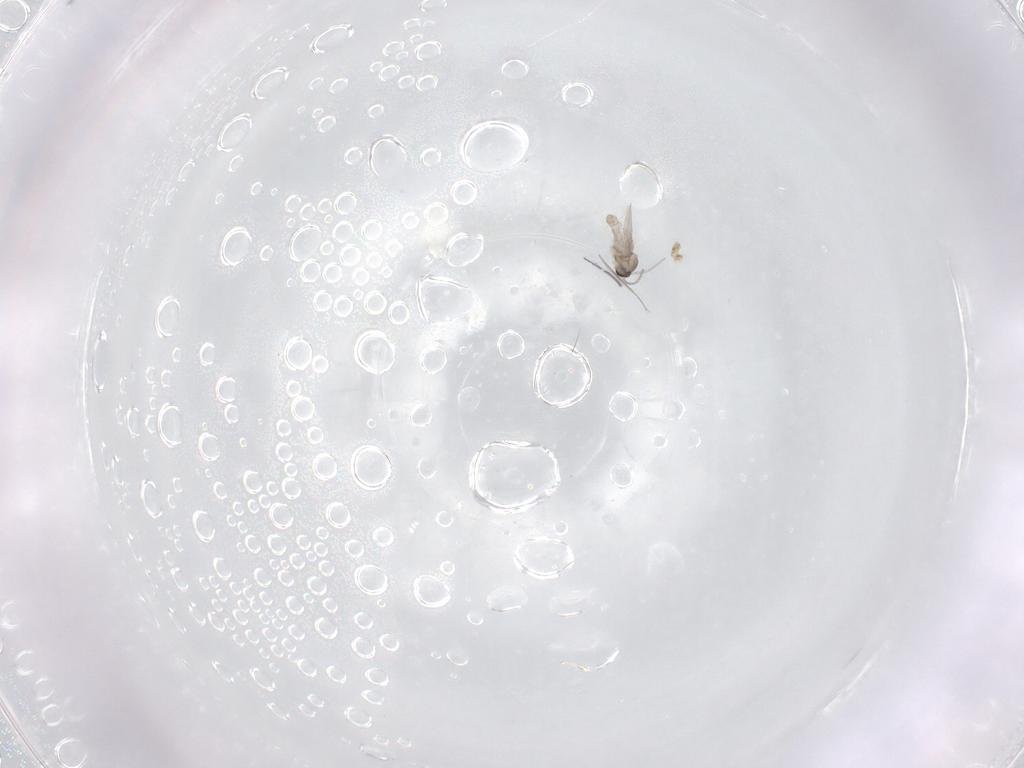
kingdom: Animalia
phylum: Arthropoda
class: Insecta
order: Diptera
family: Cecidomyiidae
